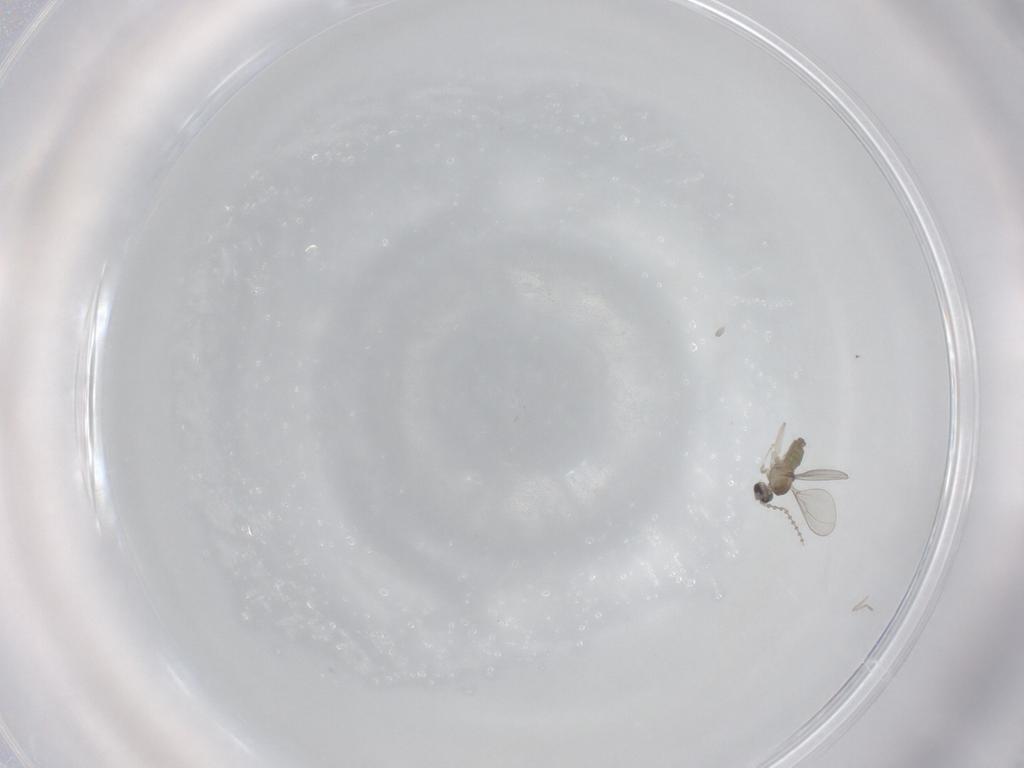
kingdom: Animalia
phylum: Arthropoda
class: Insecta
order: Diptera
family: Cecidomyiidae
